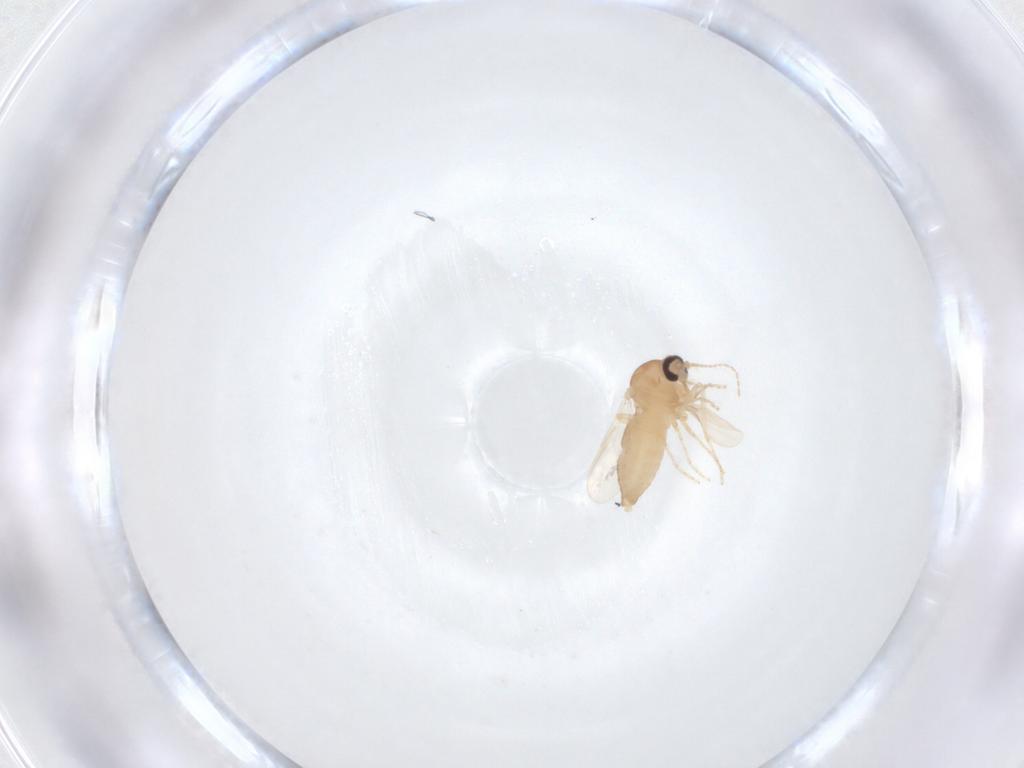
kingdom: Animalia
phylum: Arthropoda
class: Insecta
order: Diptera
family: Ceratopogonidae
